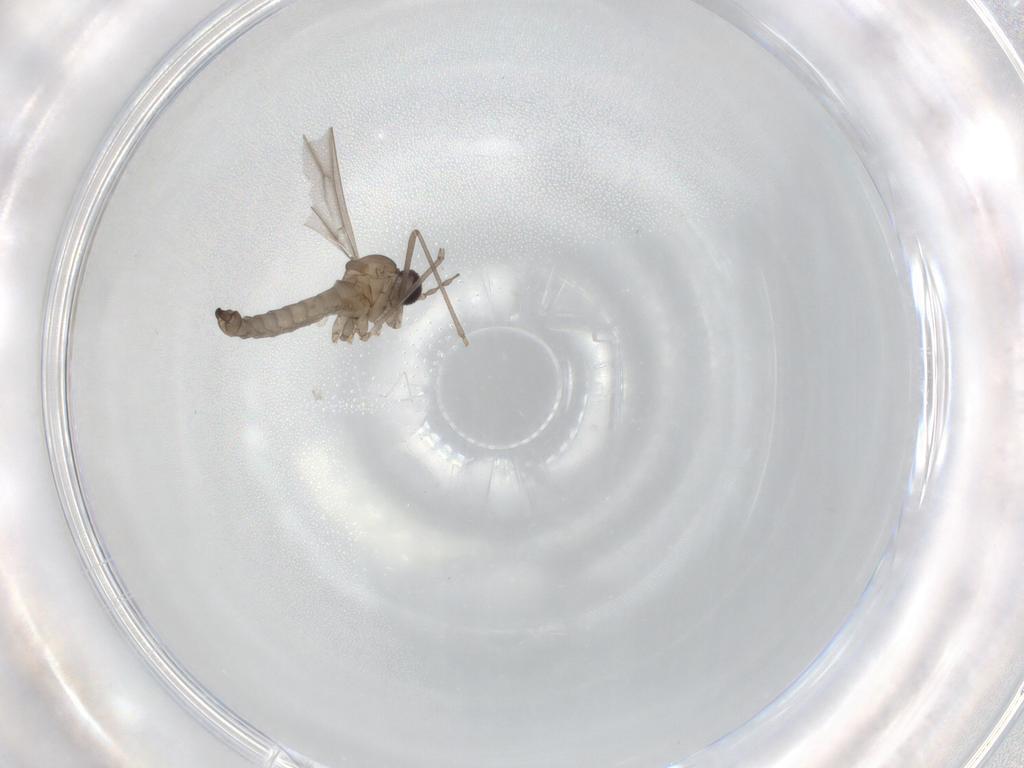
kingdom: Animalia
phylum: Arthropoda
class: Insecta
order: Diptera
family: Cecidomyiidae
